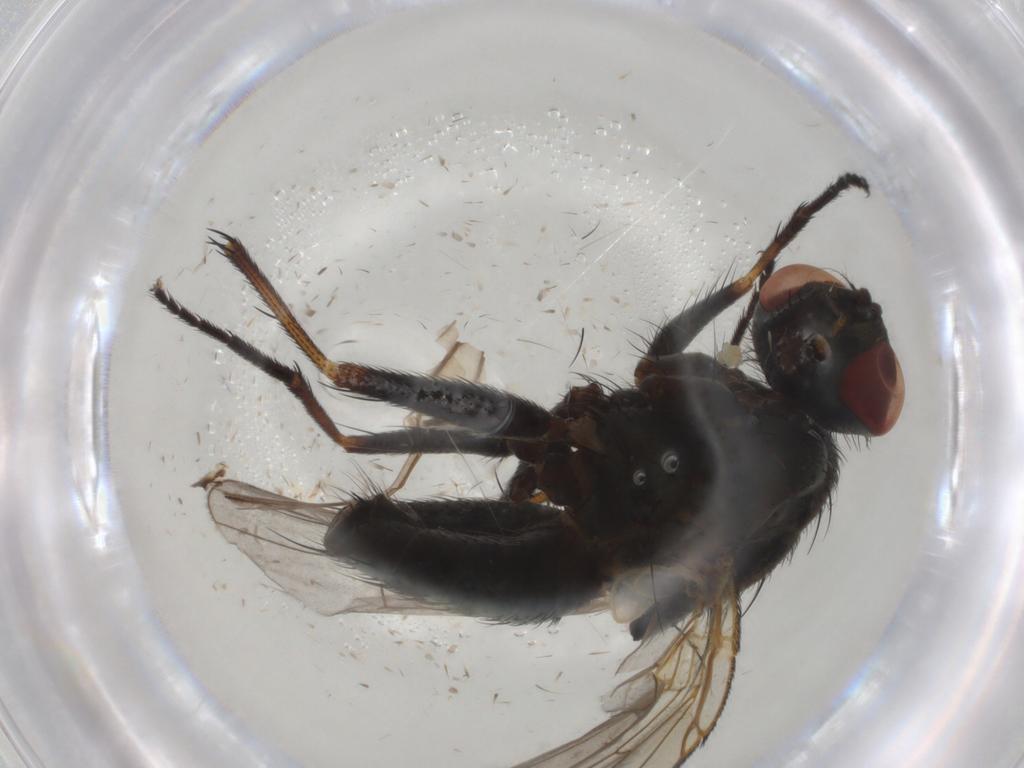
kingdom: Animalia
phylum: Arthropoda
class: Insecta
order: Diptera
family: Muscidae
